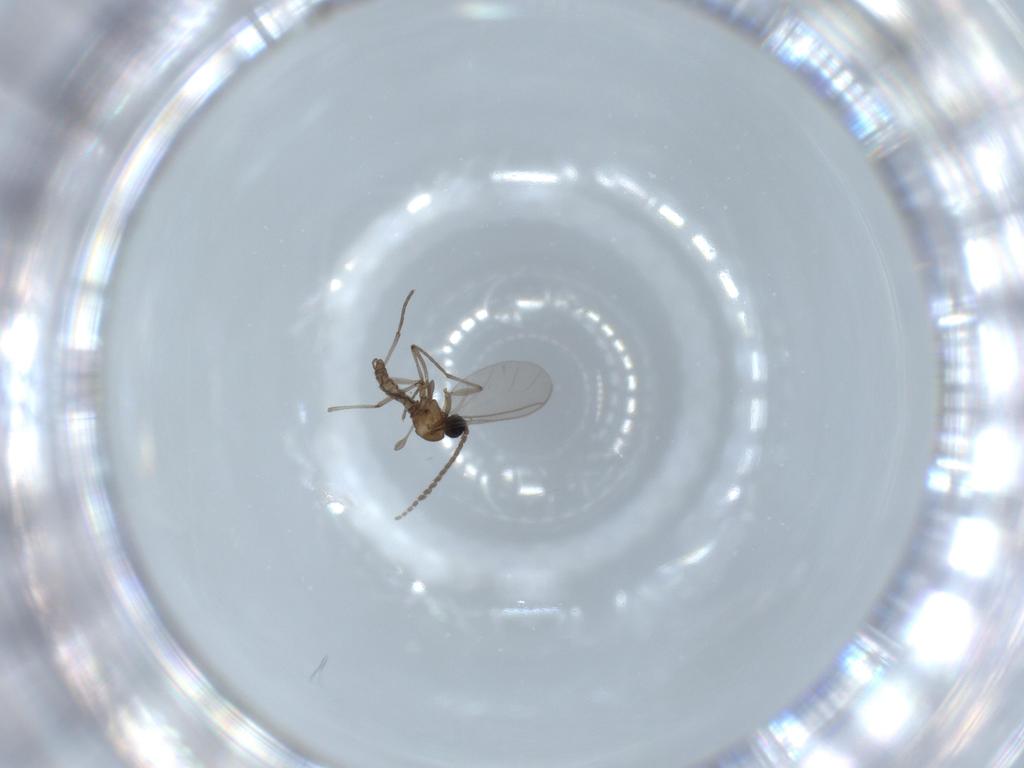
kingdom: Animalia
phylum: Arthropoda
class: Insecta
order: Diptera
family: Sciaridae
